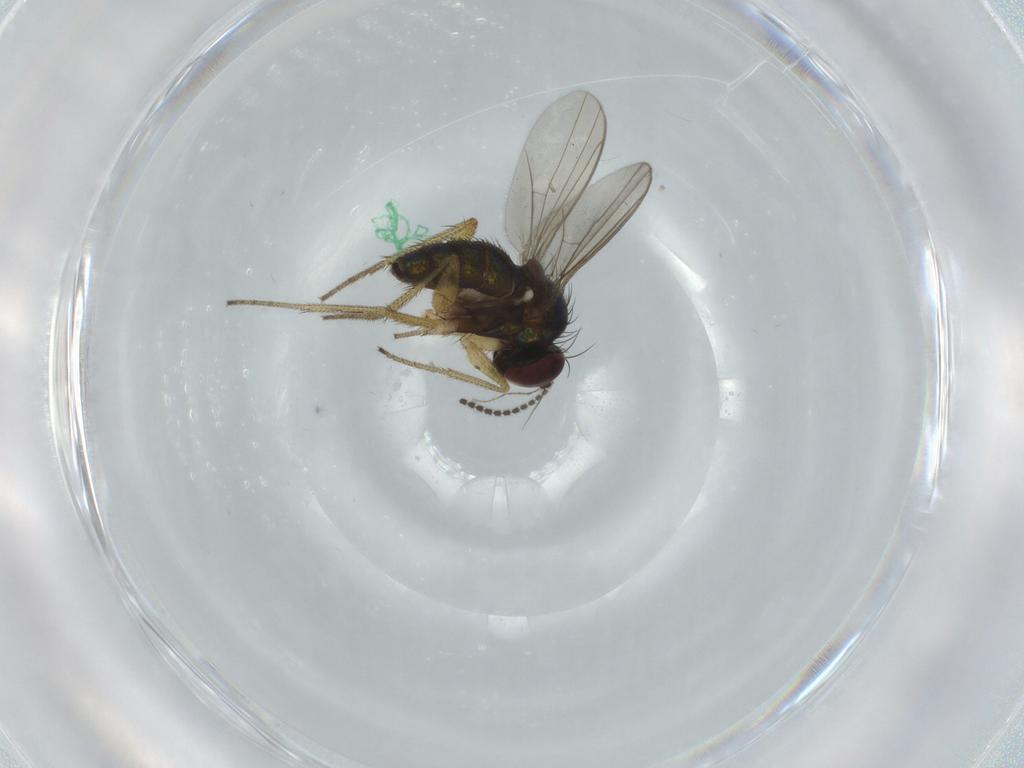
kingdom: Animalia
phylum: Arthropoda
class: Insecta
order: Diptera
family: Dolichopodidae
